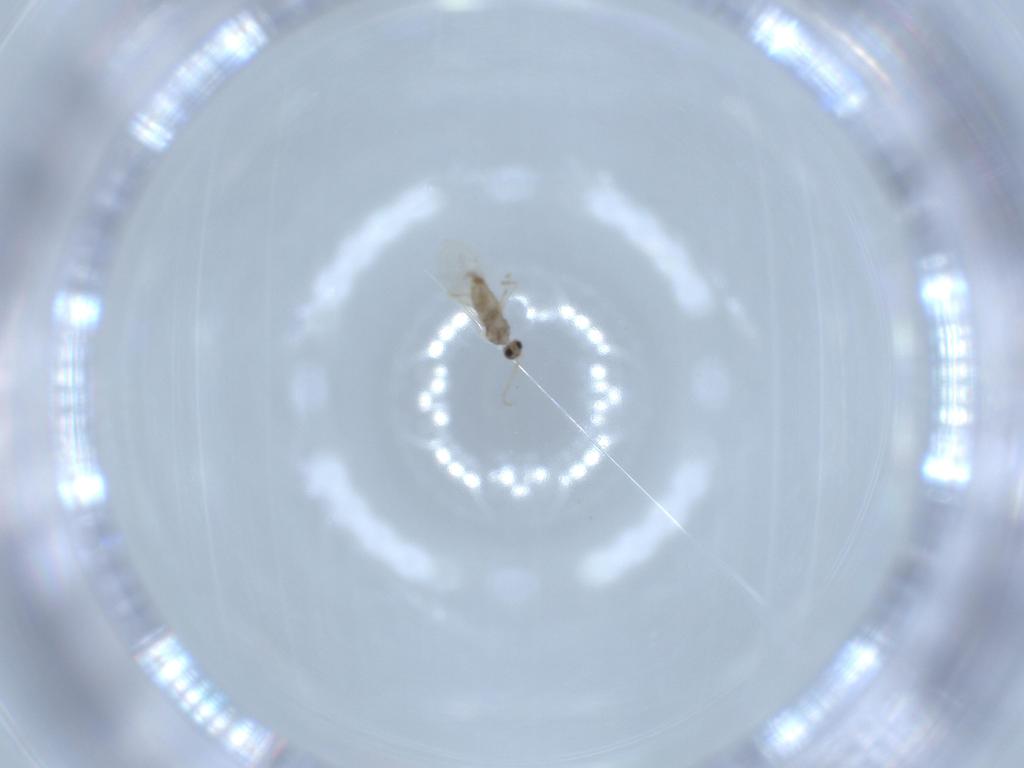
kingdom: Animalia
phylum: Arthropoda
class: Insecta
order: Diptera
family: Cecidomyiidae
